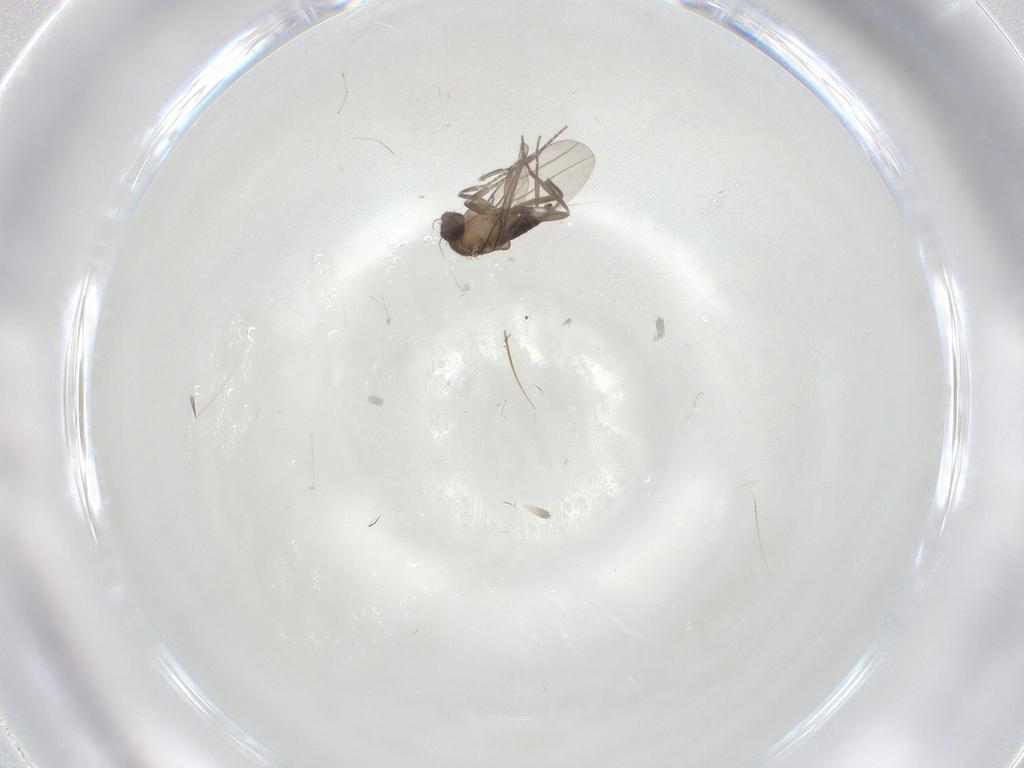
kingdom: Animalia
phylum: Arthropoda
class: Insecta
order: Diptera
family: Phoridae
